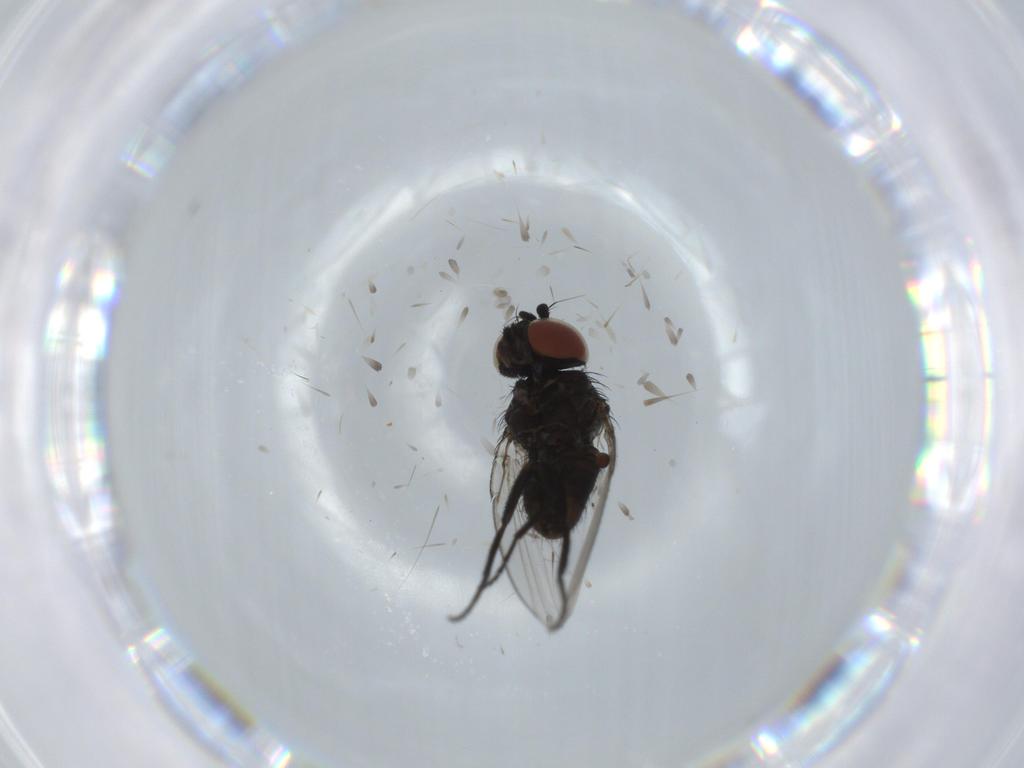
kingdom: Animalia
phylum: Arthropoda
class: Insecta
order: Diptera
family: Milichiidae
